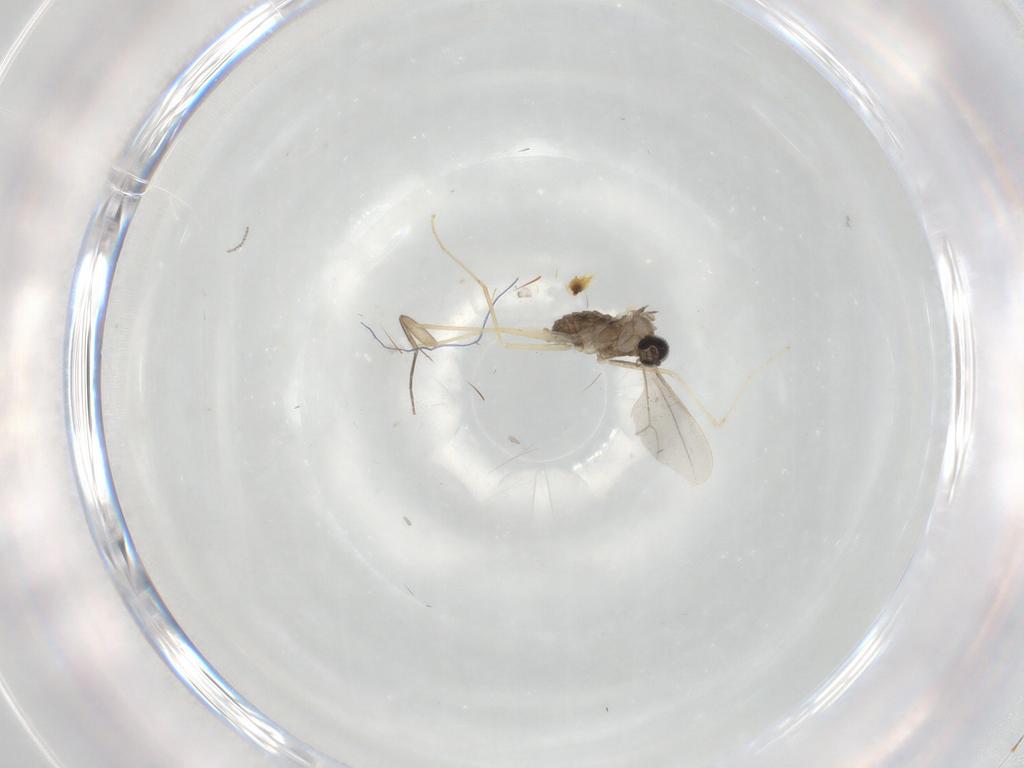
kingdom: Animalia
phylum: Arthropoda
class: Insecta
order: Diptera
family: Cecidomyiidae
